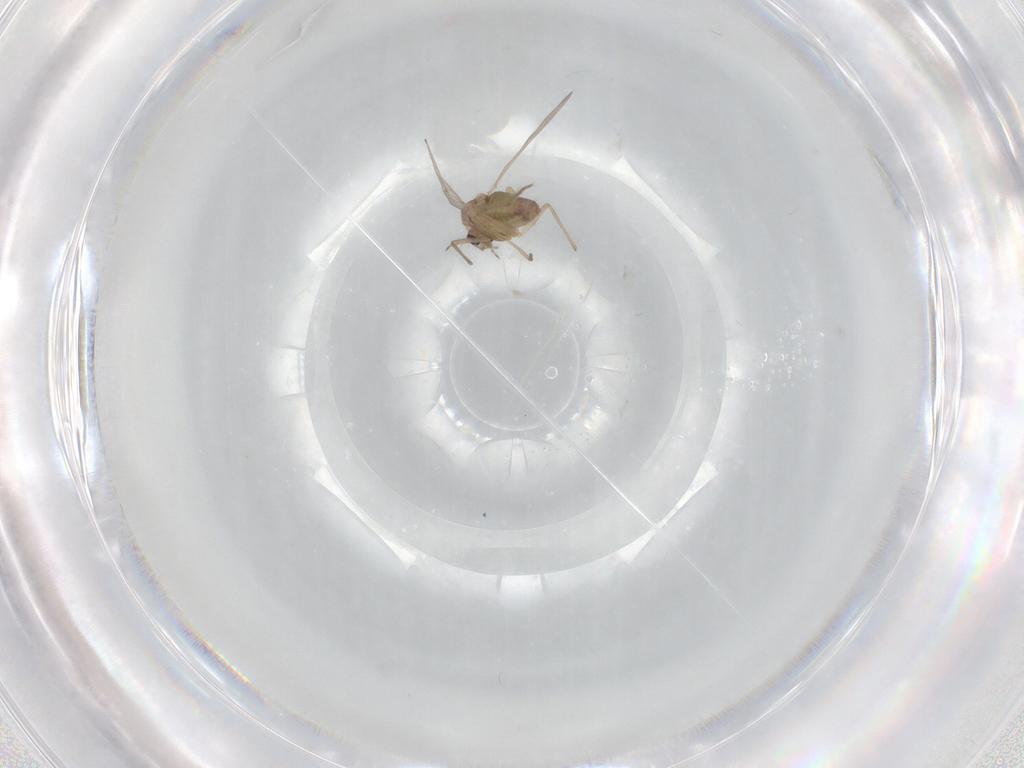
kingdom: Animalia
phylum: Arthropoda
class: Insecta
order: Diptera
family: Chironomidae
